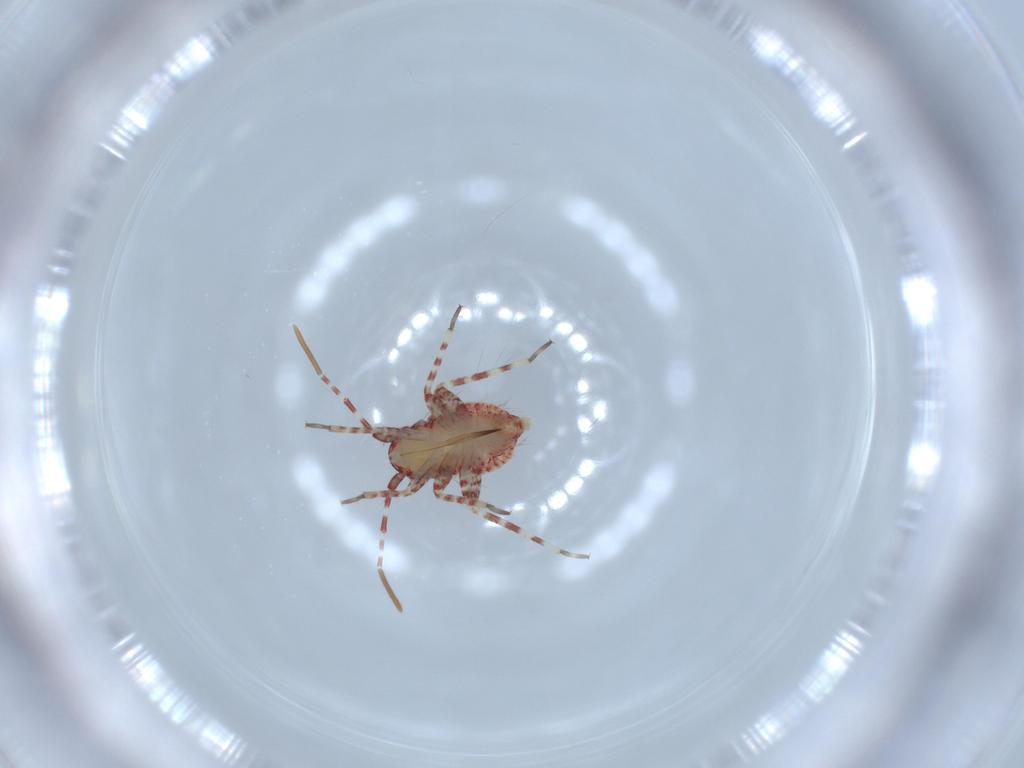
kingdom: Animalia
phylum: Arthropoda
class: Insecta
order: Hemiptera
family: Miridae
